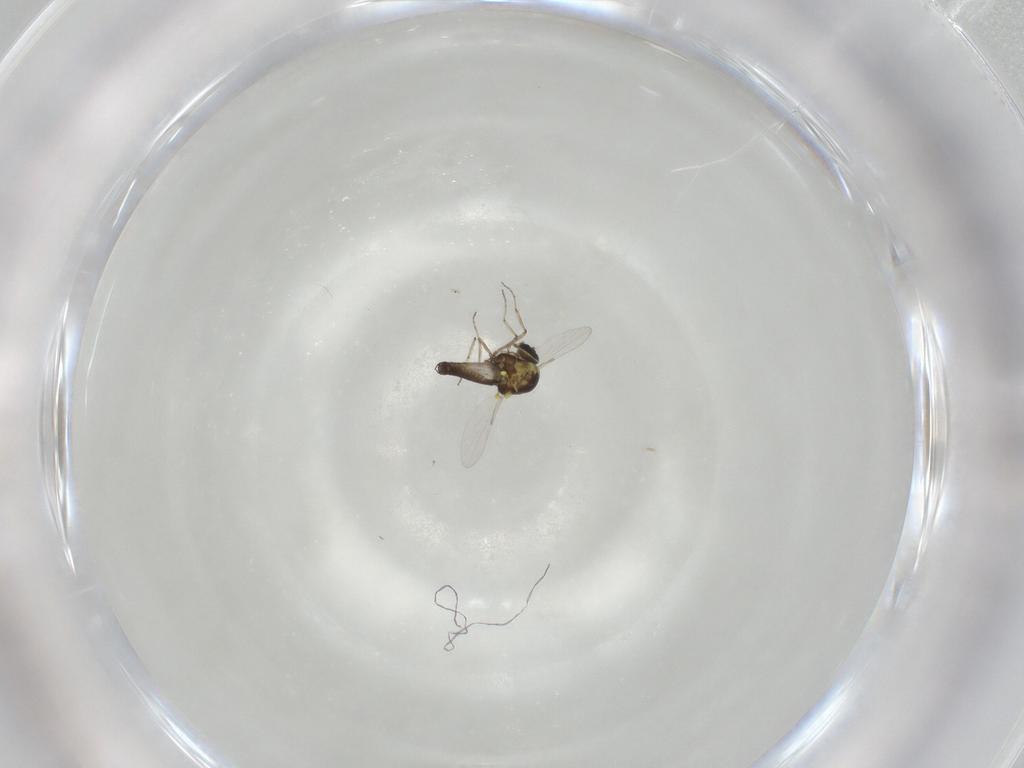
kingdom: Animalia
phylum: Arthropoda
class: Insecta
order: Diptera
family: Ceratopogonidae
